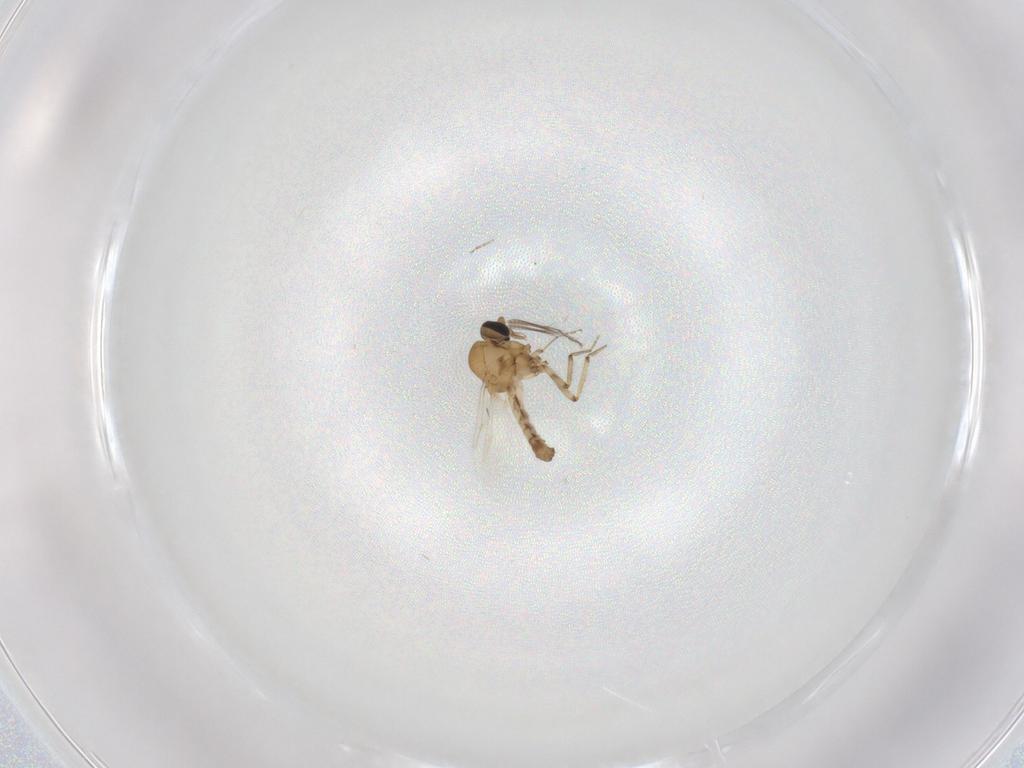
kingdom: Animalia
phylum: Arthropoda
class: Insecta
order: Diptera
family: Ceratopogonidae
